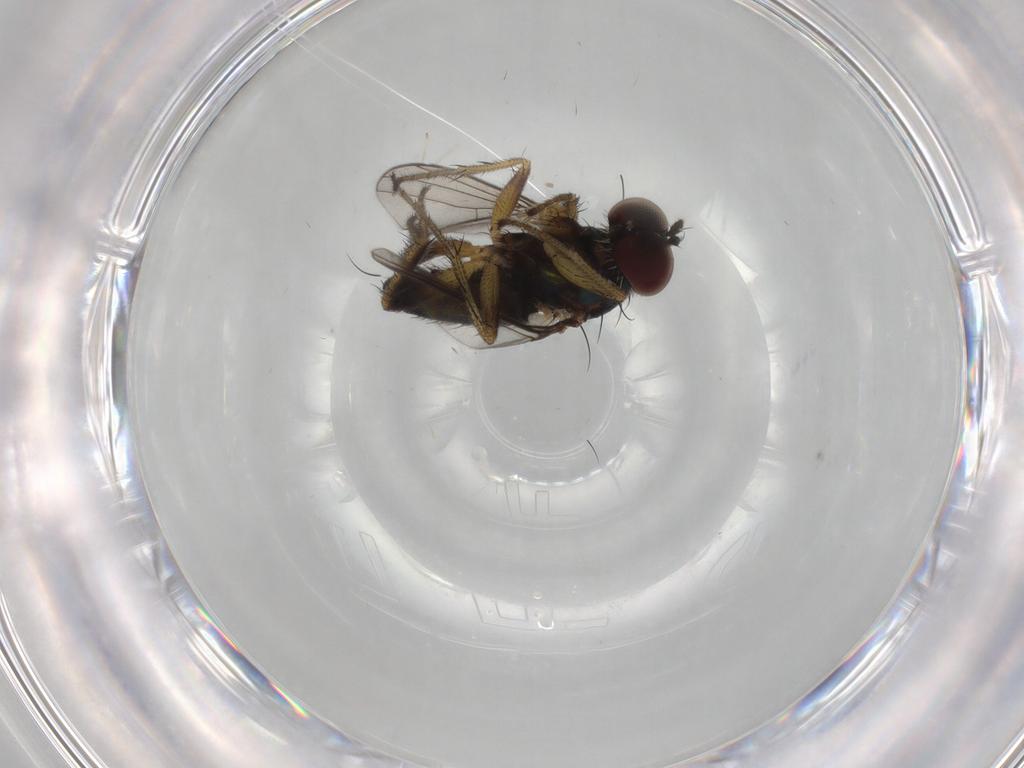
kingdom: Animalia
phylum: Arthropoda
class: Insecta
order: Diptera
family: Dolichopodidae
